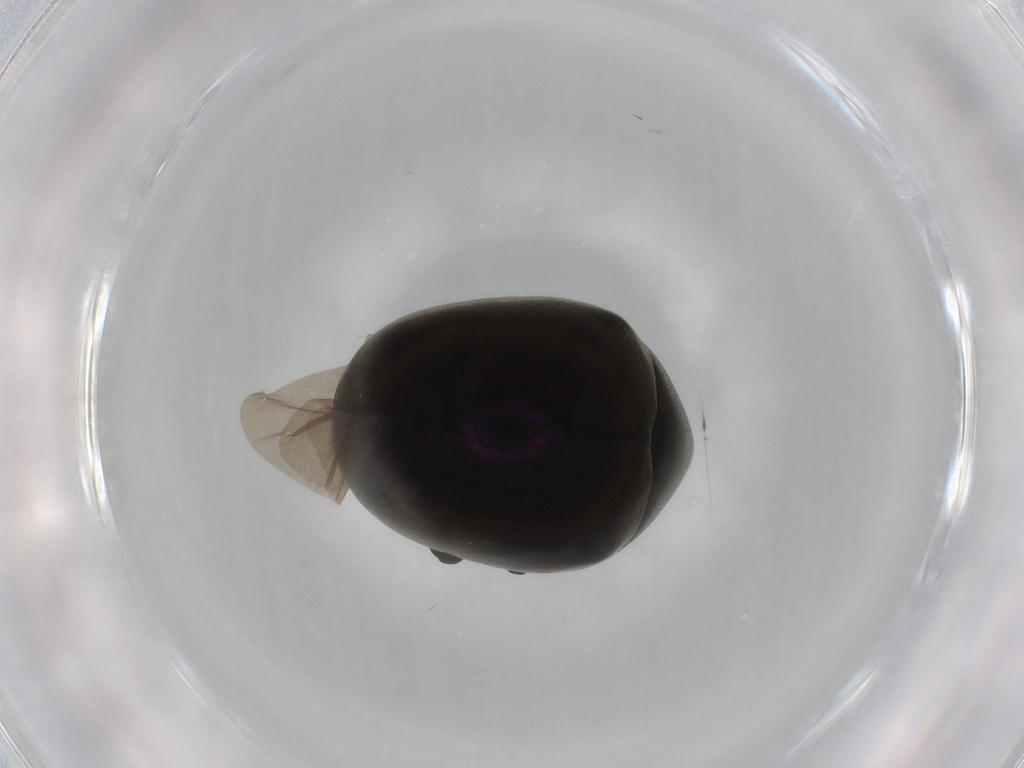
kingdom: Animalia
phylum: Arthropoda
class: Insecta
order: Coleoptera
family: Chrysomelidae
